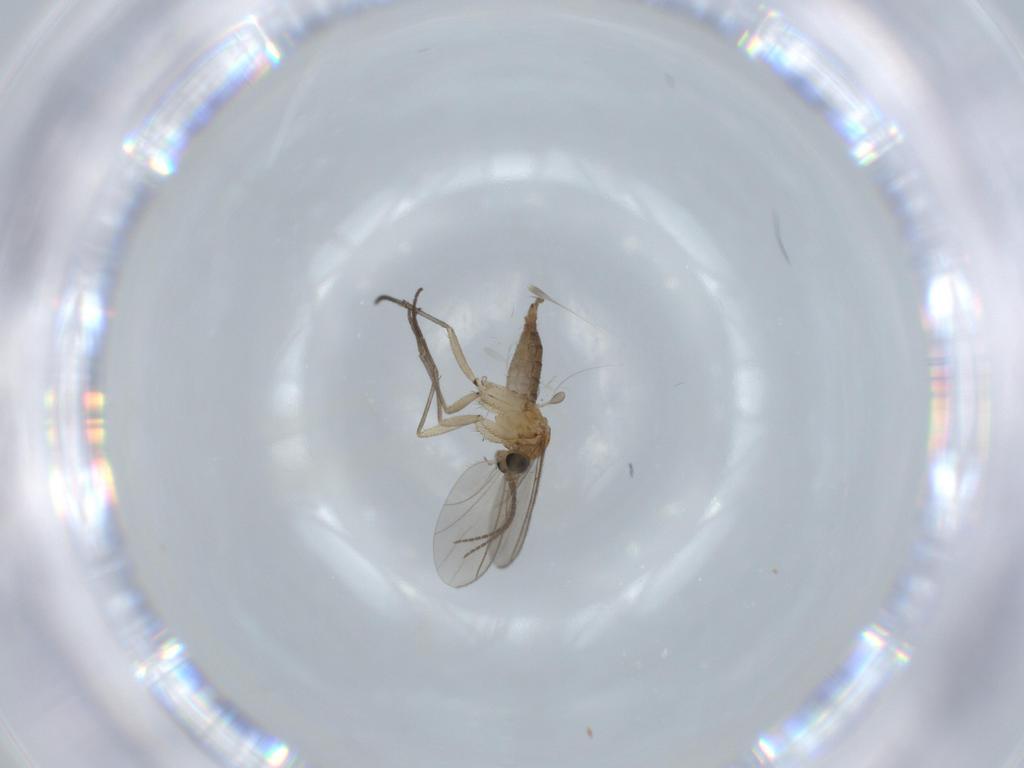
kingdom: Animalia
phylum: Arthropoda
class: Insecta
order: Diptera
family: Sciaridae
